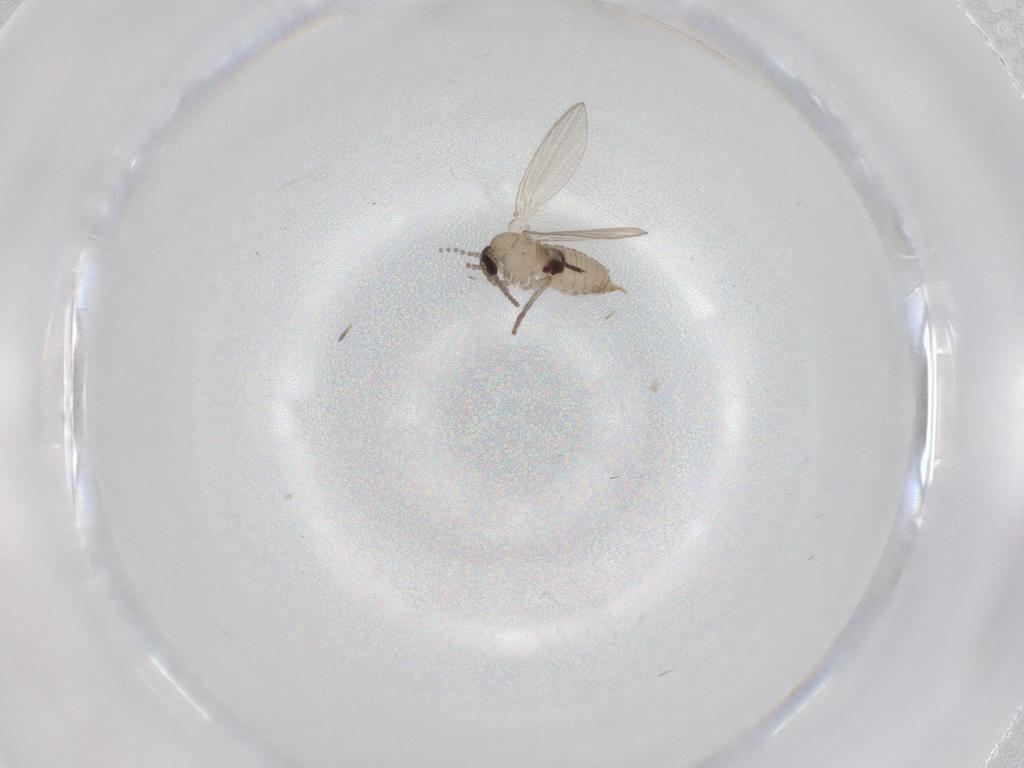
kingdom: Animalia
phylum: Arthropoda
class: Insecta
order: Diptera
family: Psychodidae
